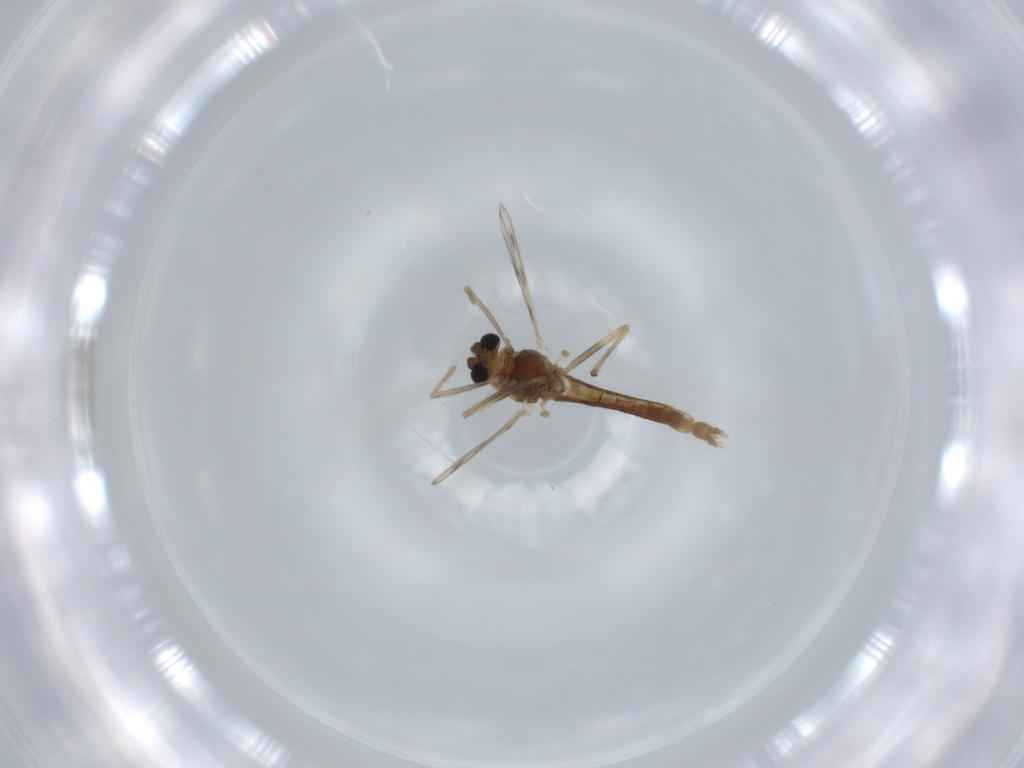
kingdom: Animalia
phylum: Arthropoda
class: Insecta
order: Diptera
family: Chironomidae
